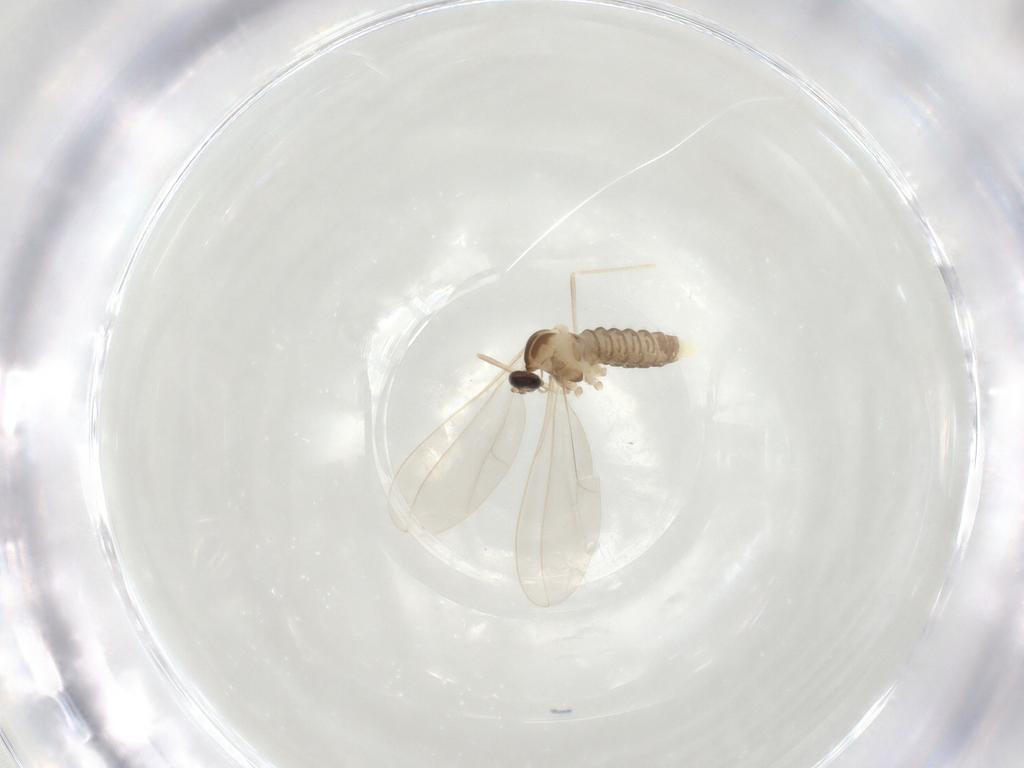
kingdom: Animalia
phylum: Arthropoda
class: Insecta
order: Diptera
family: Cecidomyiidae
